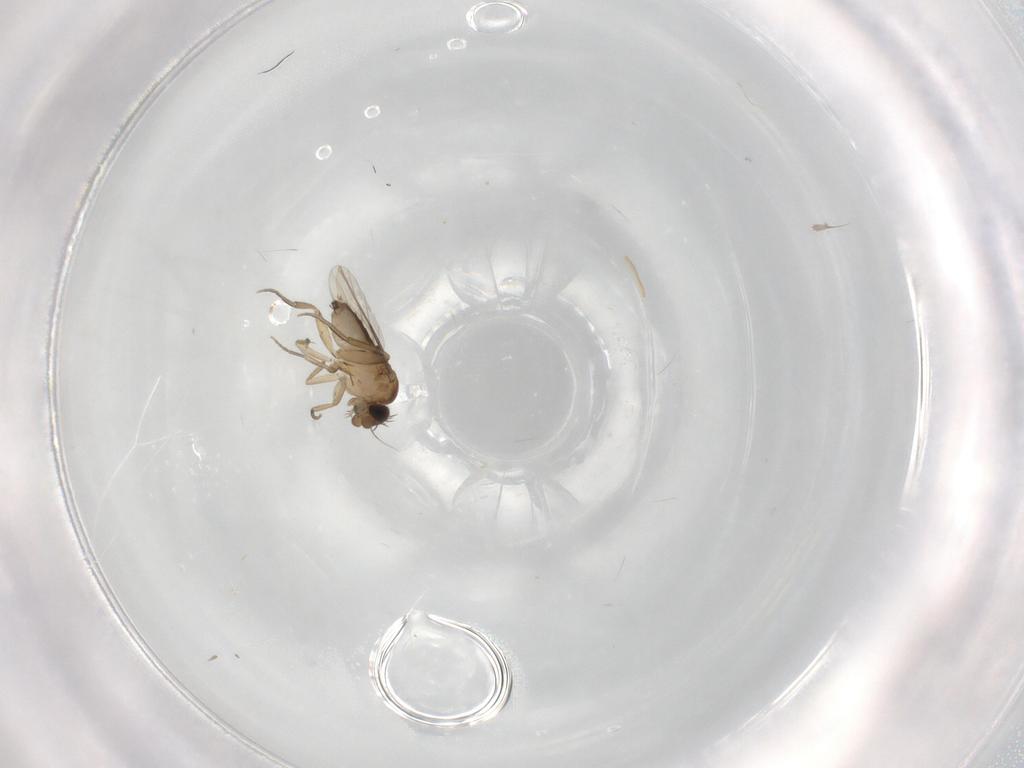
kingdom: Animalia
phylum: Arthropoda
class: Insecta
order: Diptera
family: Phoridae
